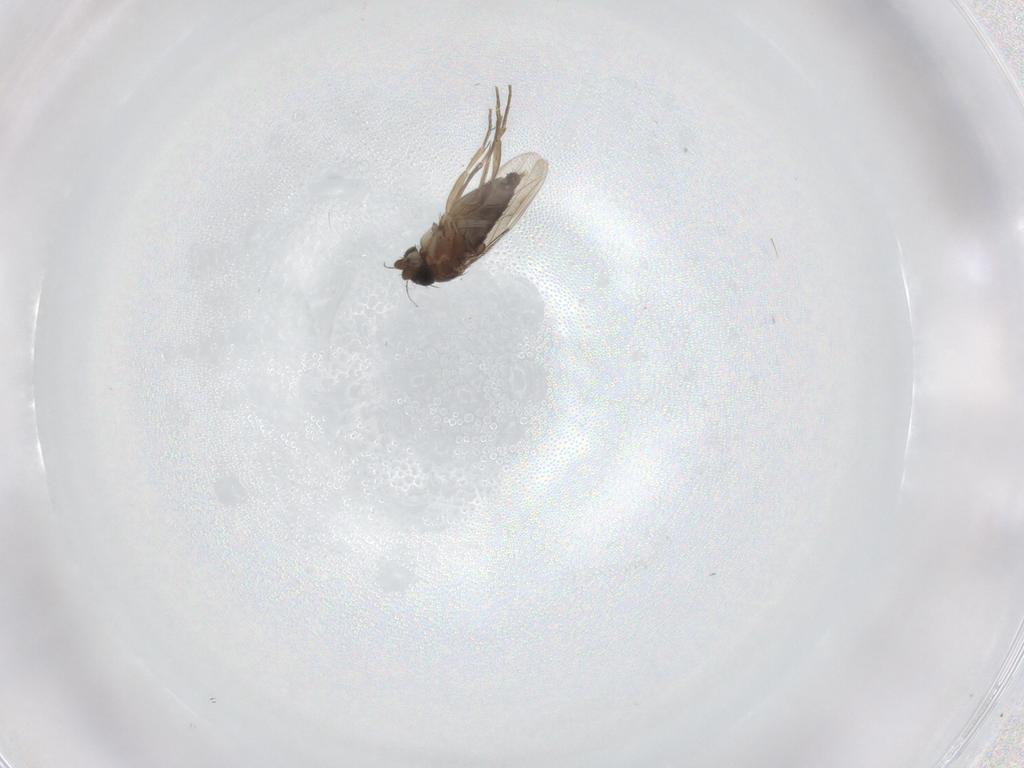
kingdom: Animalia
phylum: Arthropoda
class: Insecta
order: Diptera
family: Phoridae
